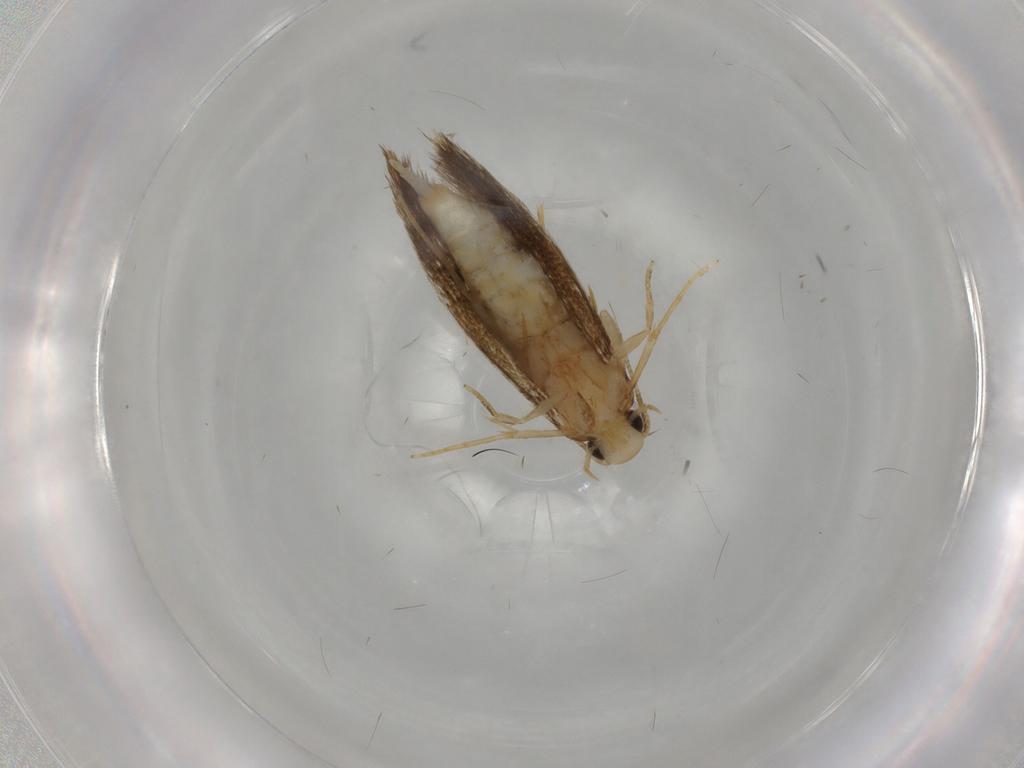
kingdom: Animalia
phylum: Arthropoda
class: Insecta
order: Lepidoptera
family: Tineidae
